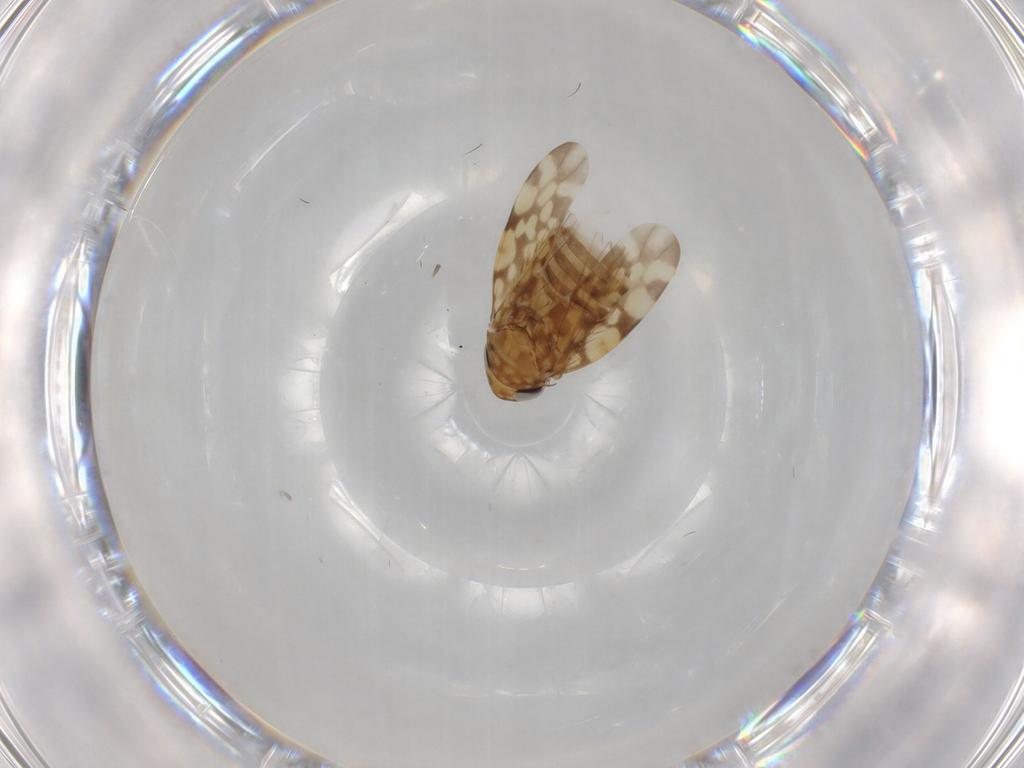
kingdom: Animalia
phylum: Arthropoda
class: Insecta
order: Hemiptera
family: Cicadellidae
